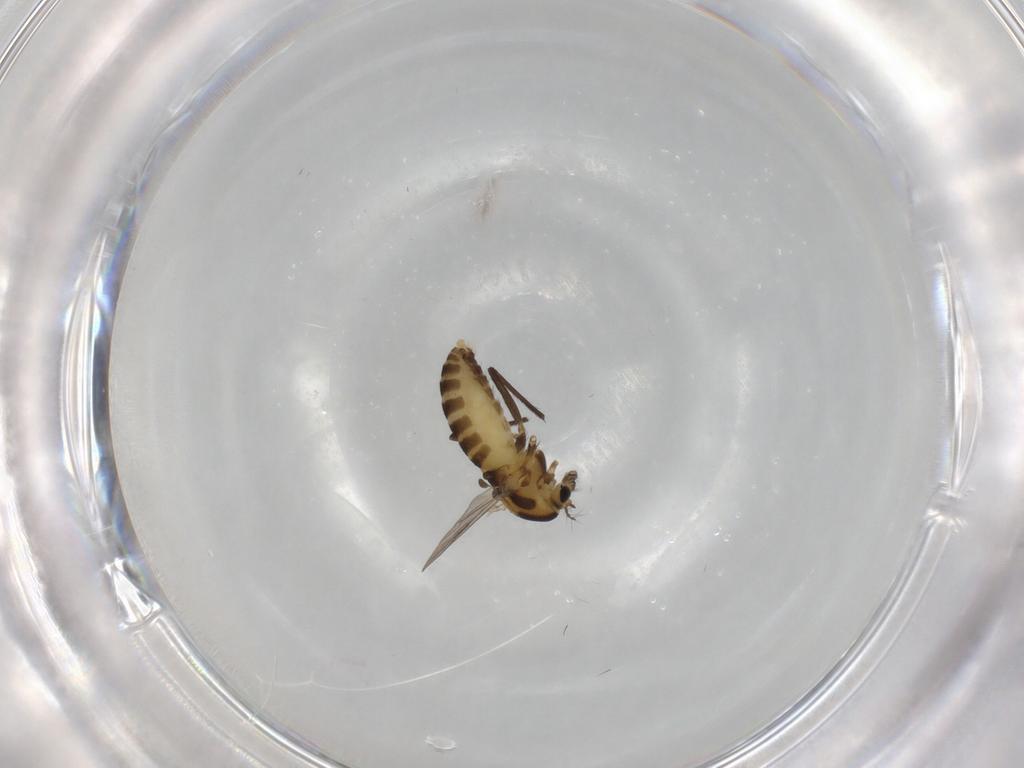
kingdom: Animalia
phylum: Arthropoda
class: Insecta
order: Diptera
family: Chironomidae
